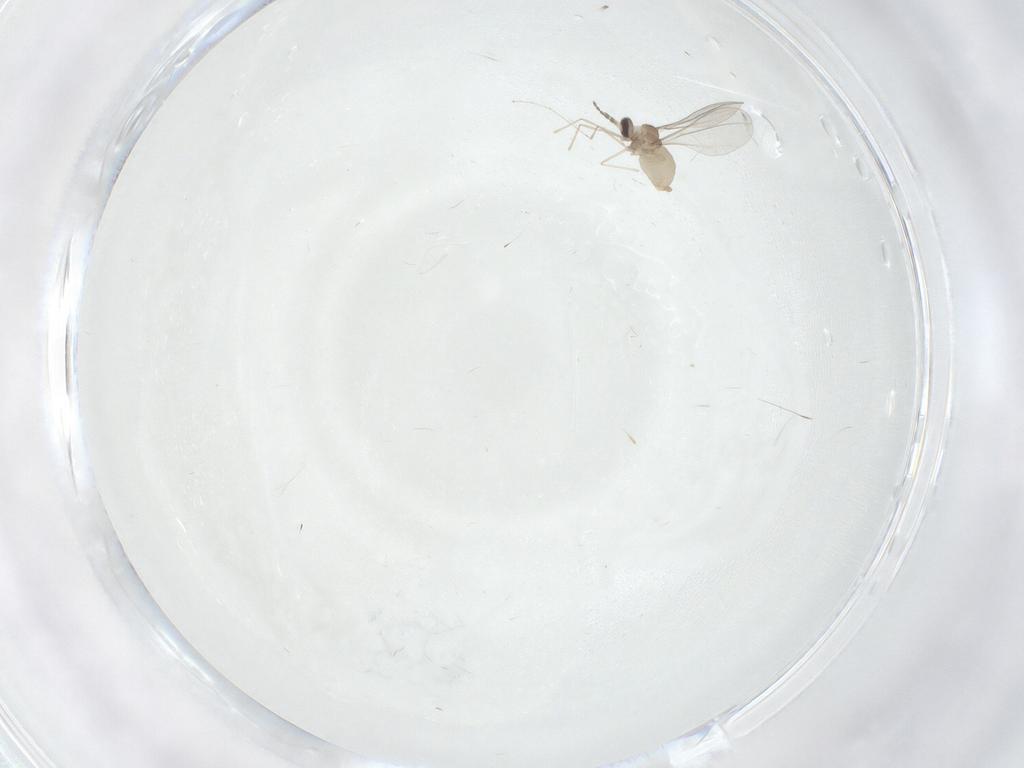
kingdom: Animalia
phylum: Arthropoda
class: Insecta
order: Diptera
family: Cecidomyiidae
